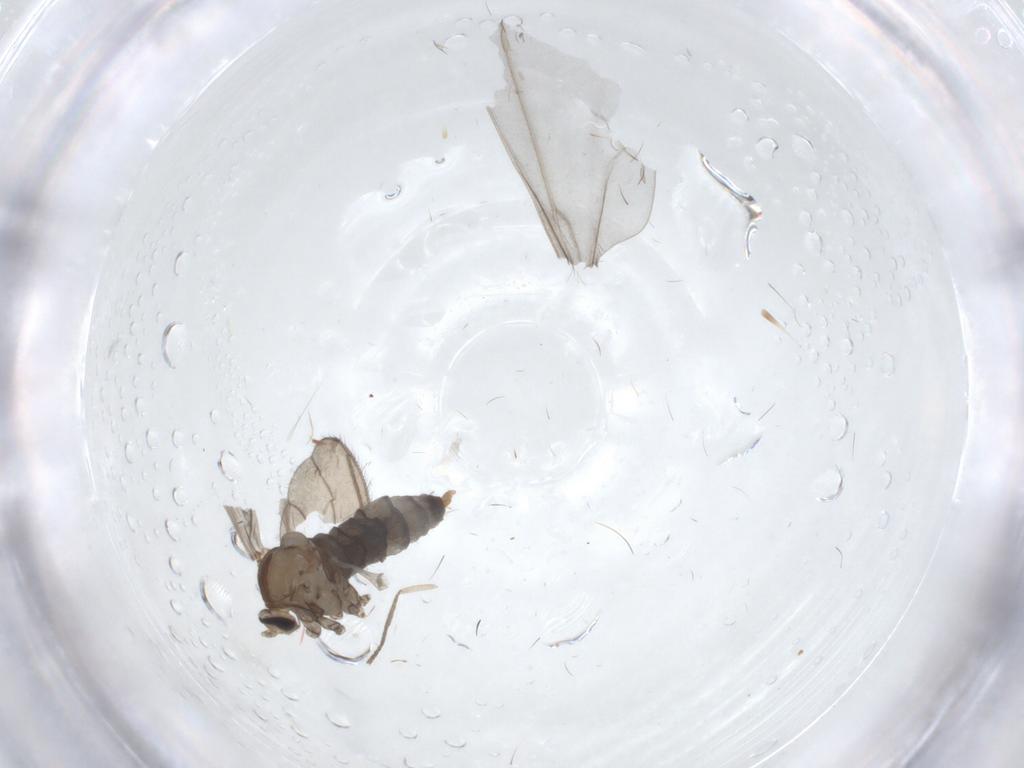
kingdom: Animalia
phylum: Arthropoda
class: Insecta
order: Diptera
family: Cecidomyiidae
